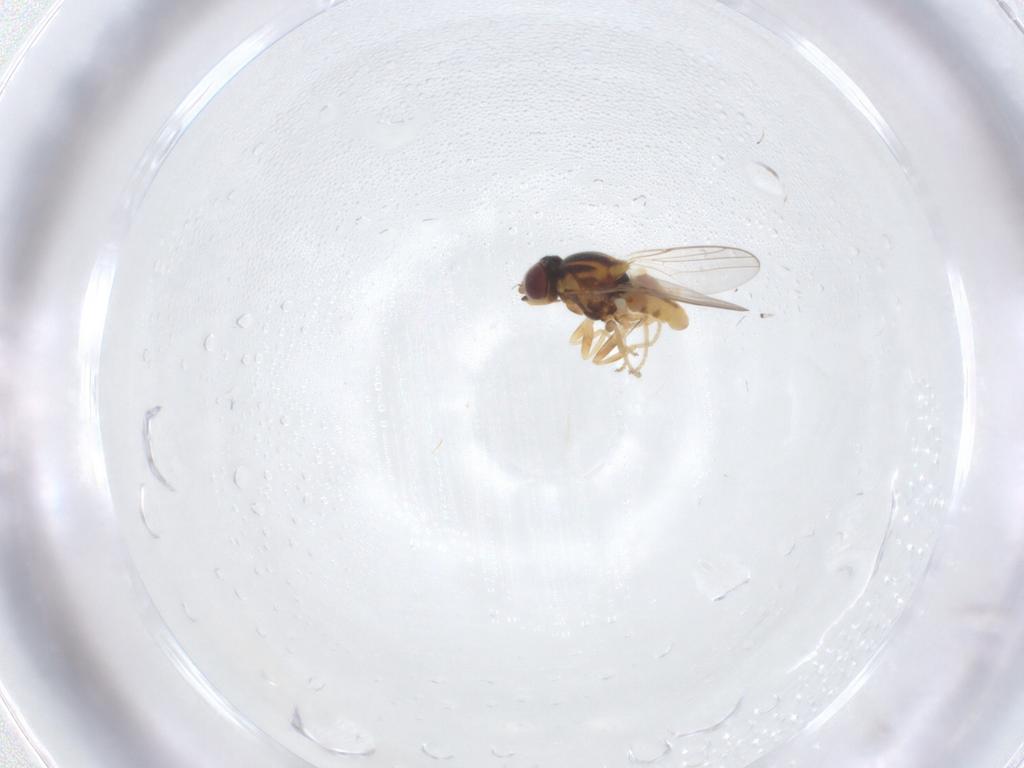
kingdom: Animalia
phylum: Arthropoda
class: Insecta
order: Diptera
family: Chloropidae
